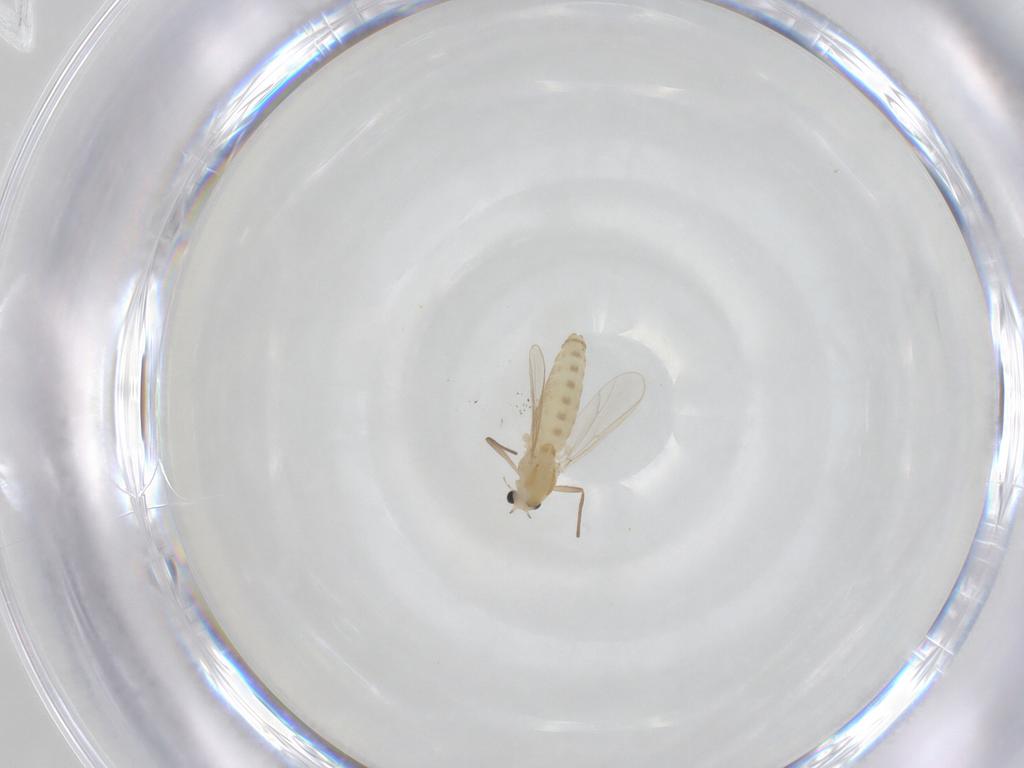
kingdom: Animalia
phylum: Arthropoda
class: Insecta
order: Diptera
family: Chironomidae
